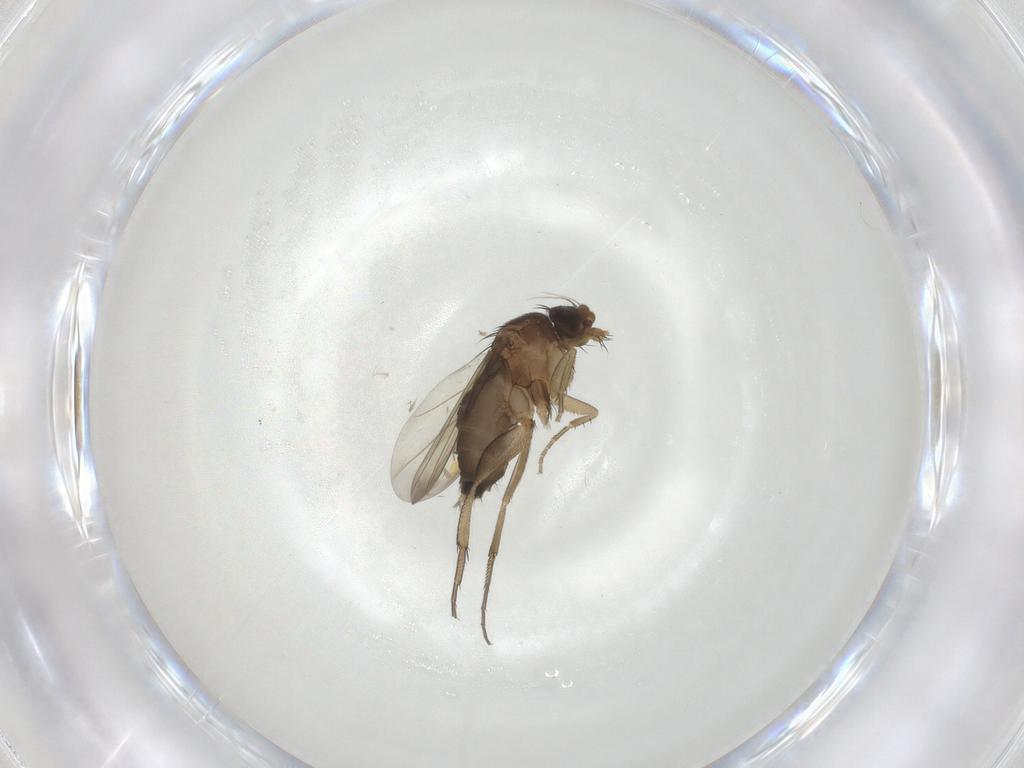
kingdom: Animalia
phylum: Arthropoda
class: Insecta
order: Diptera
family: Phoridae
